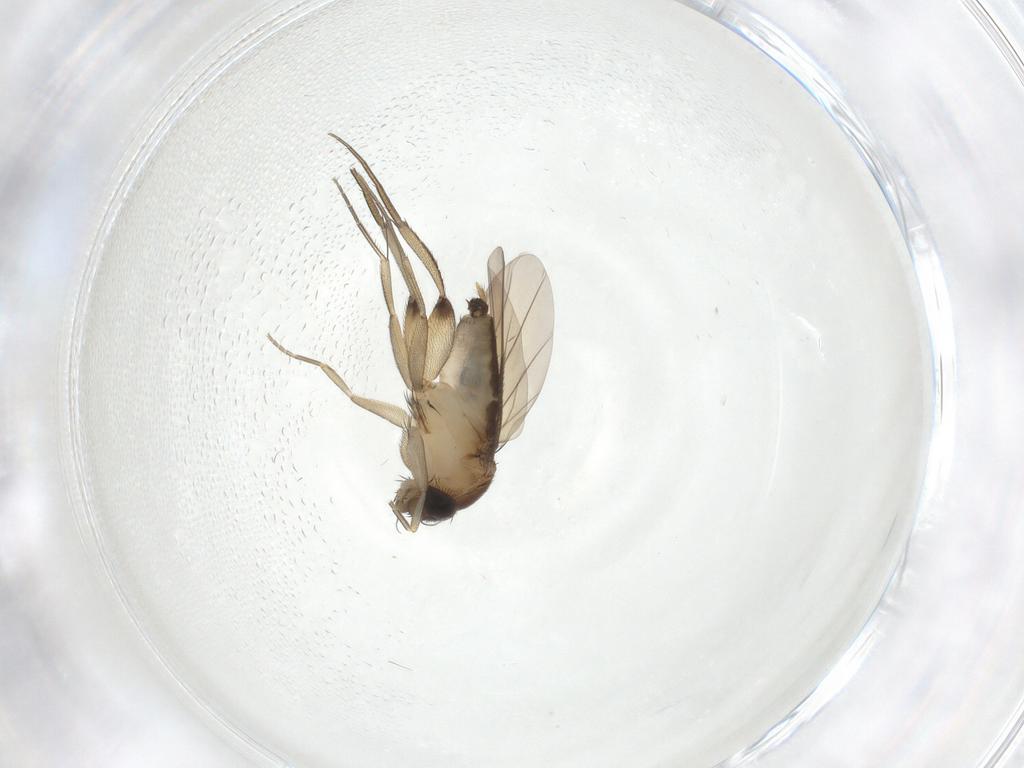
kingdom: Animalia
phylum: Arthropoda
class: Insecta
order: Diptera
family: Phoridae
